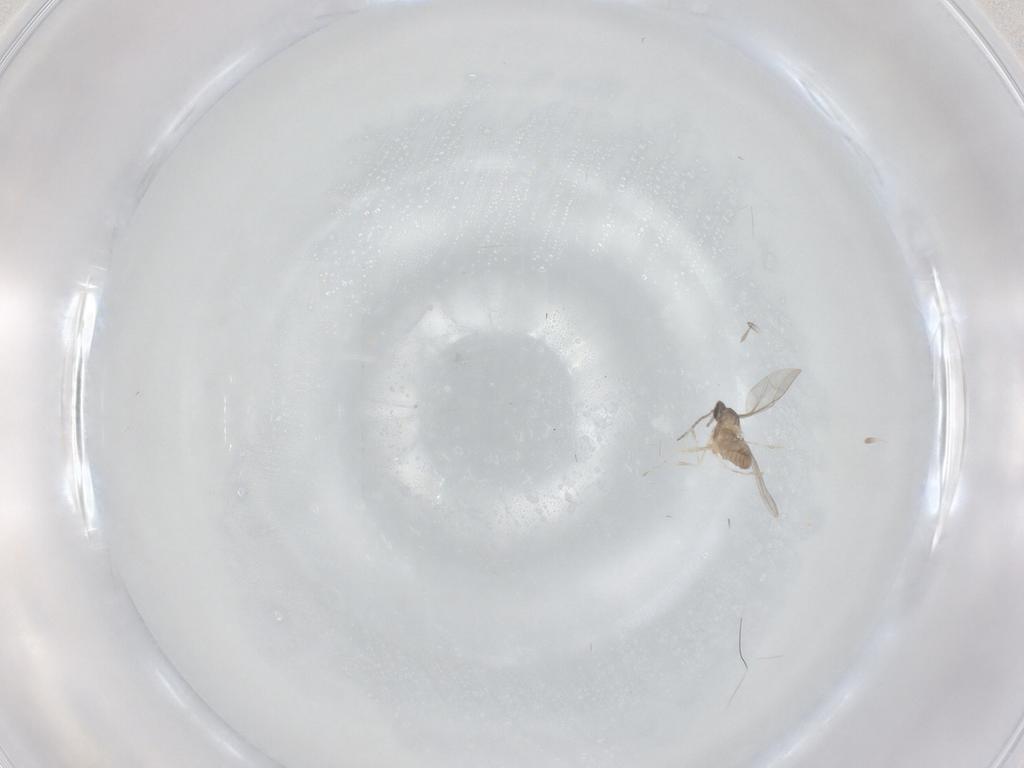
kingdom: Animalia
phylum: Arthropoda
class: Insecta
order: Diptera
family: Cecidomyiidae
